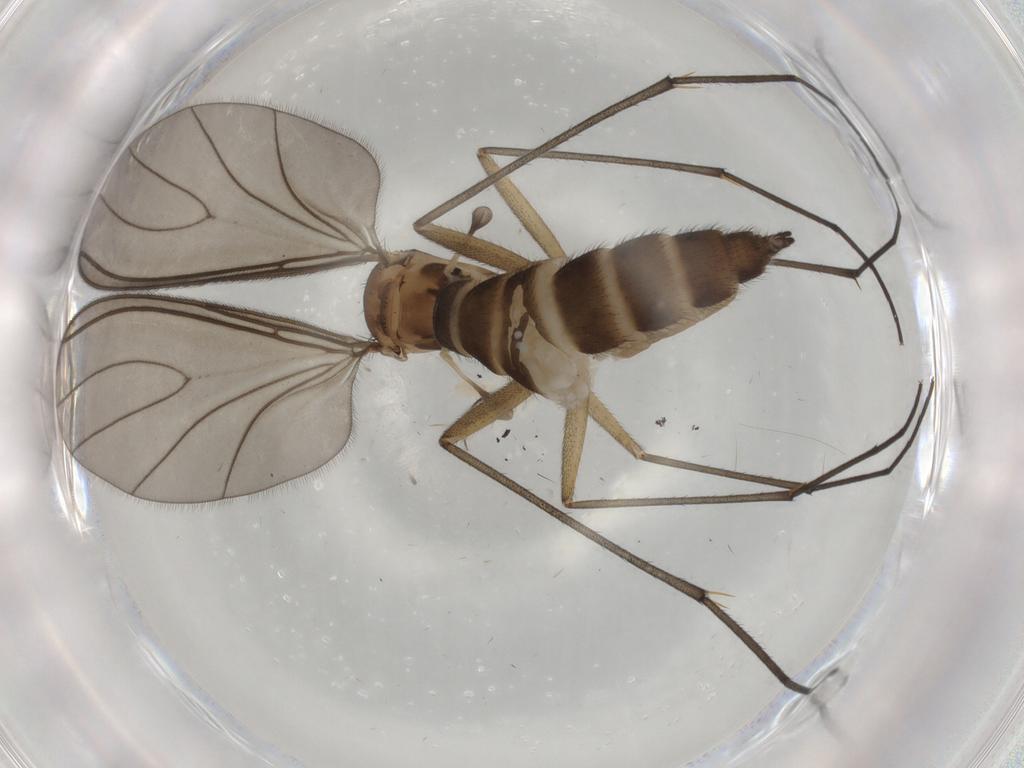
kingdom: Animalia
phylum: Arthropoda
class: Insecta
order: Diptera
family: Sciaridae
